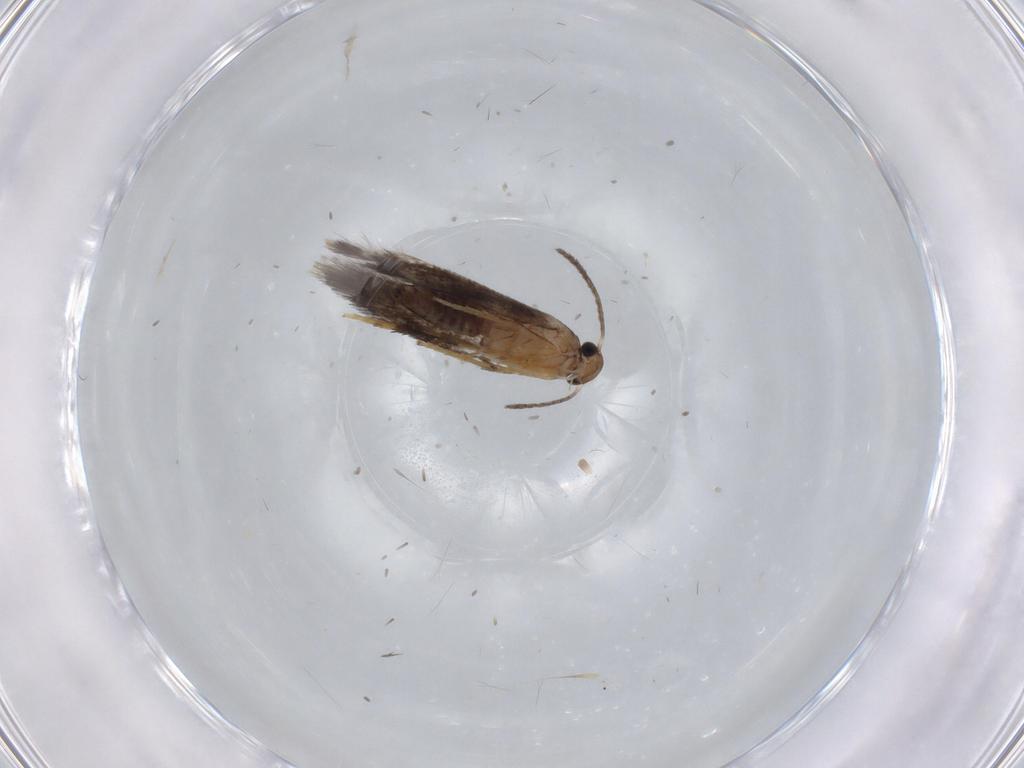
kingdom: Animalia
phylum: Arthropoda
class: Insecta
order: Lepidoptera
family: Heliozelidae
